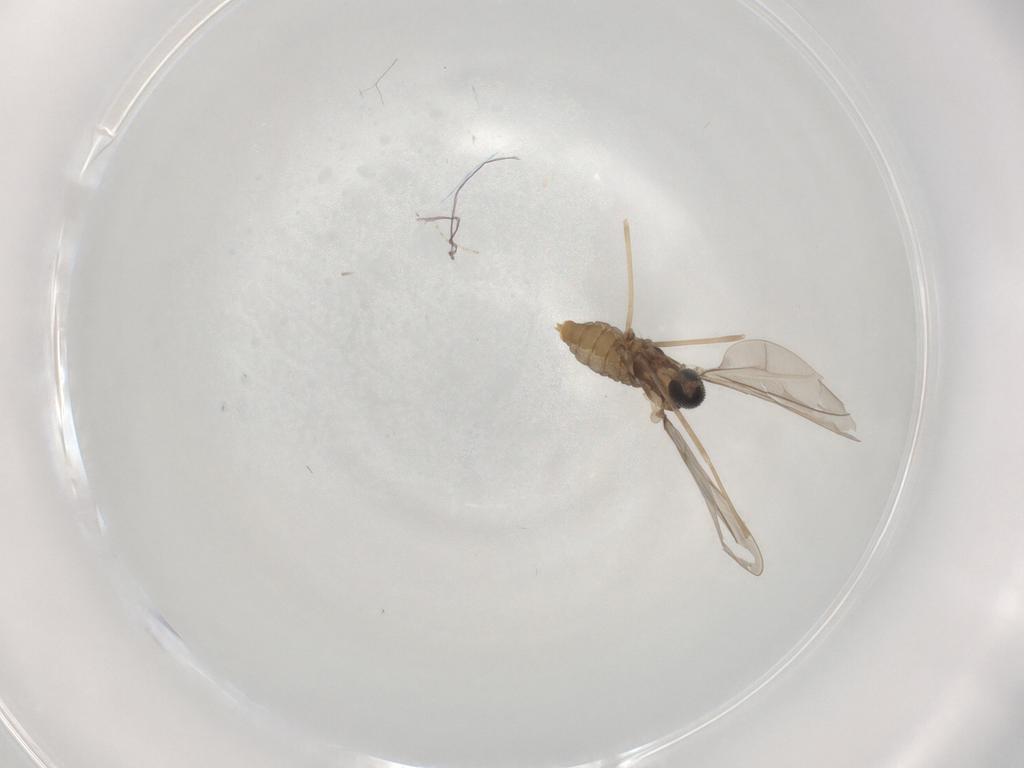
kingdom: Animalia
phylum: Arthropoda
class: Insecta
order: Diptera
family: Cecidomyiidae
